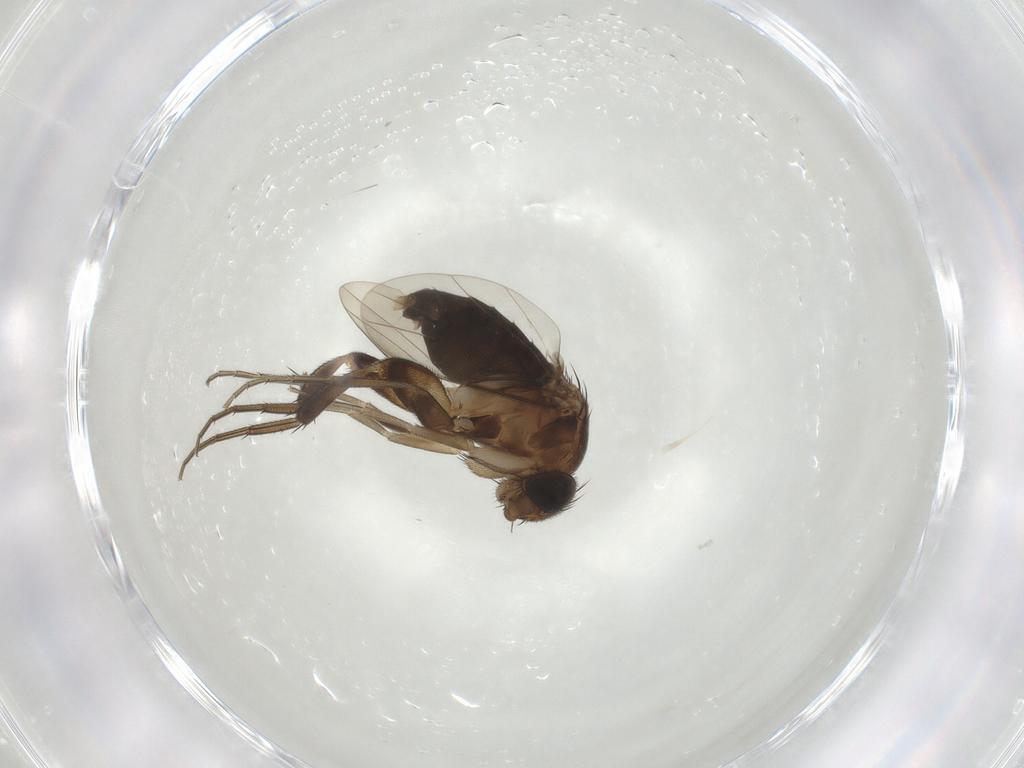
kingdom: Animalia
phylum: Arthropoda
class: Insecta
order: Diptera
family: Phoridae
